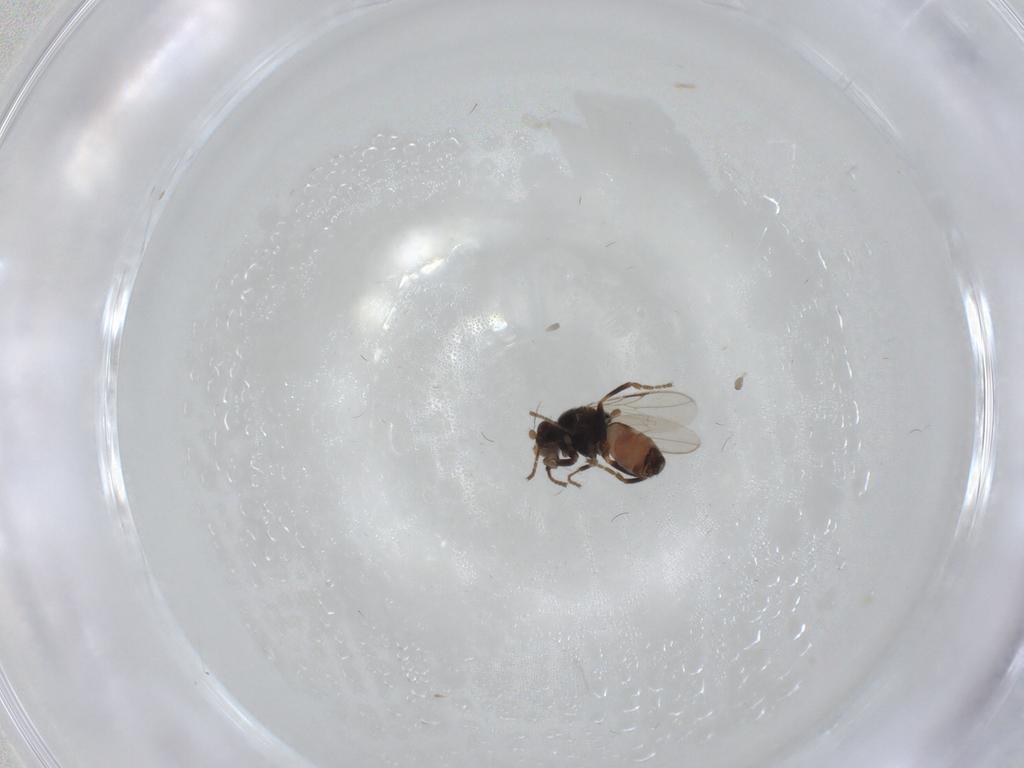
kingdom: Animalia
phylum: Arthropoda
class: Insecta
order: Diptera
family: Sphaeroceridae
